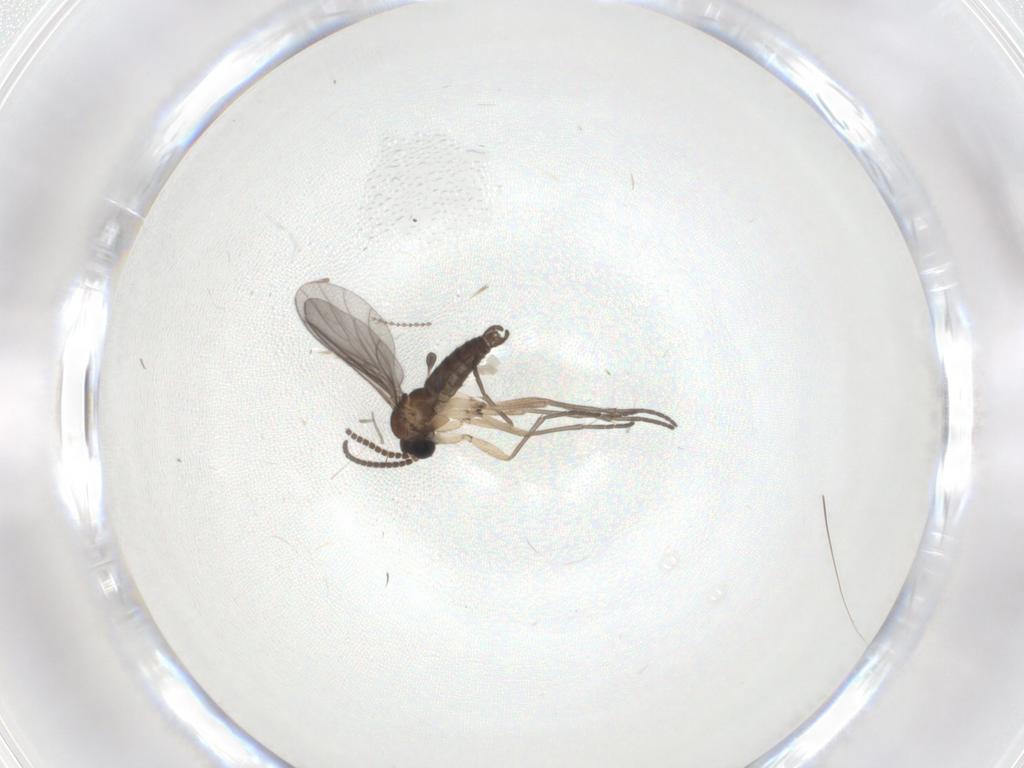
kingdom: Animalia
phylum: Arthropoda
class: Insecta
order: Diptera
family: Sciaridae
